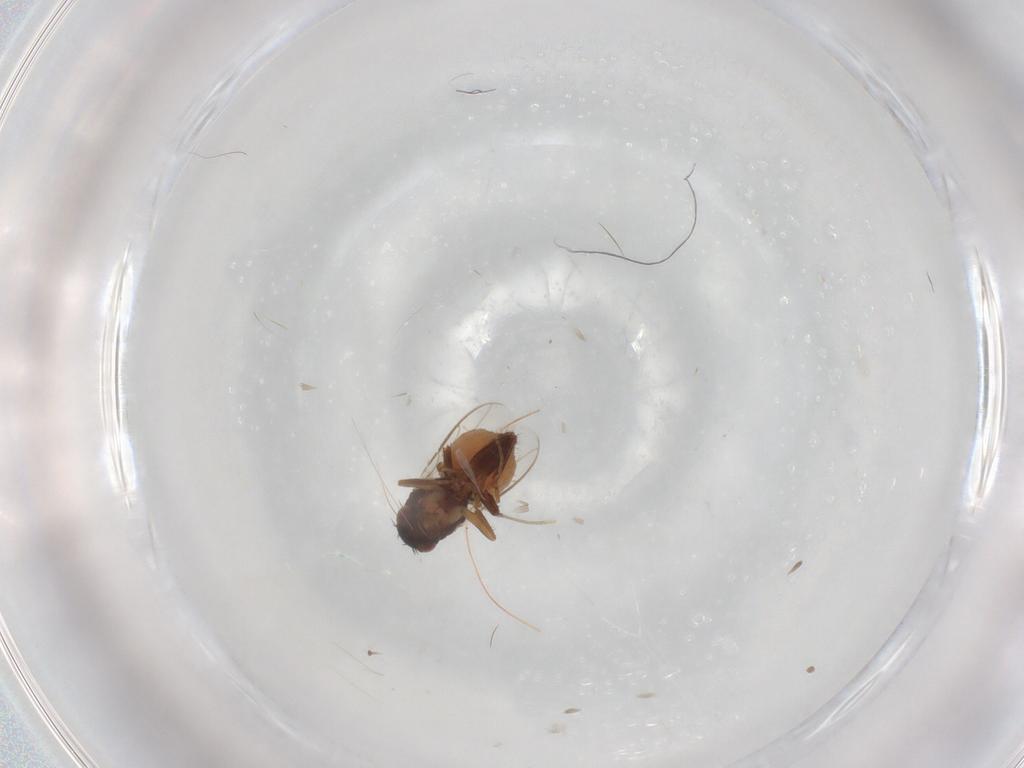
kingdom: Animalia
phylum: Arthropoda
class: Insecta
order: Diptera
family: Sphaeroceridae
